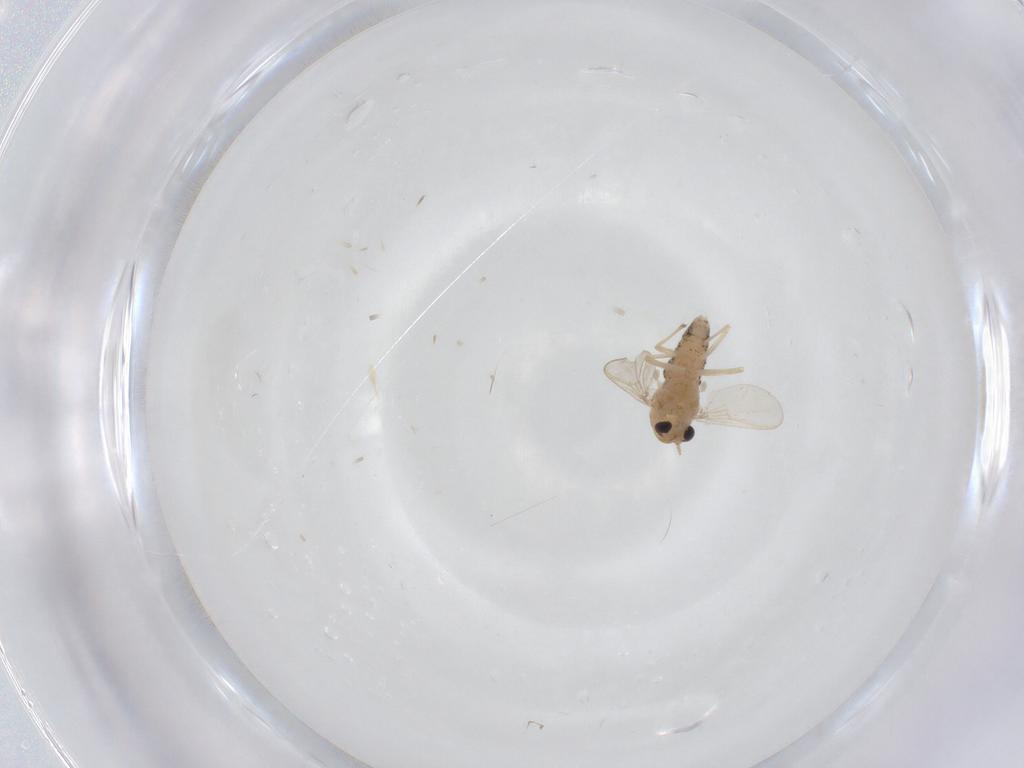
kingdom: Animalia
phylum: Arthropoda
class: Insecta
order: Diptera
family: Chironomidae
